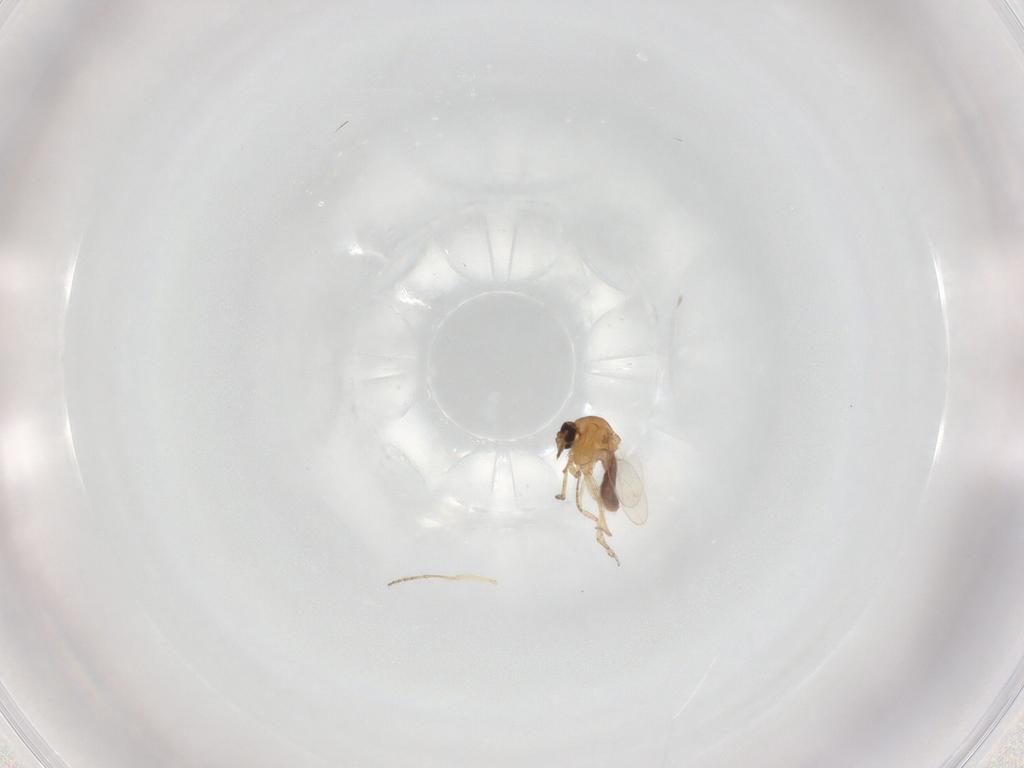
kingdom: Animalia
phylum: Arthropoda
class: Insecta
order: Diptera
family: Ceratopogonidae
